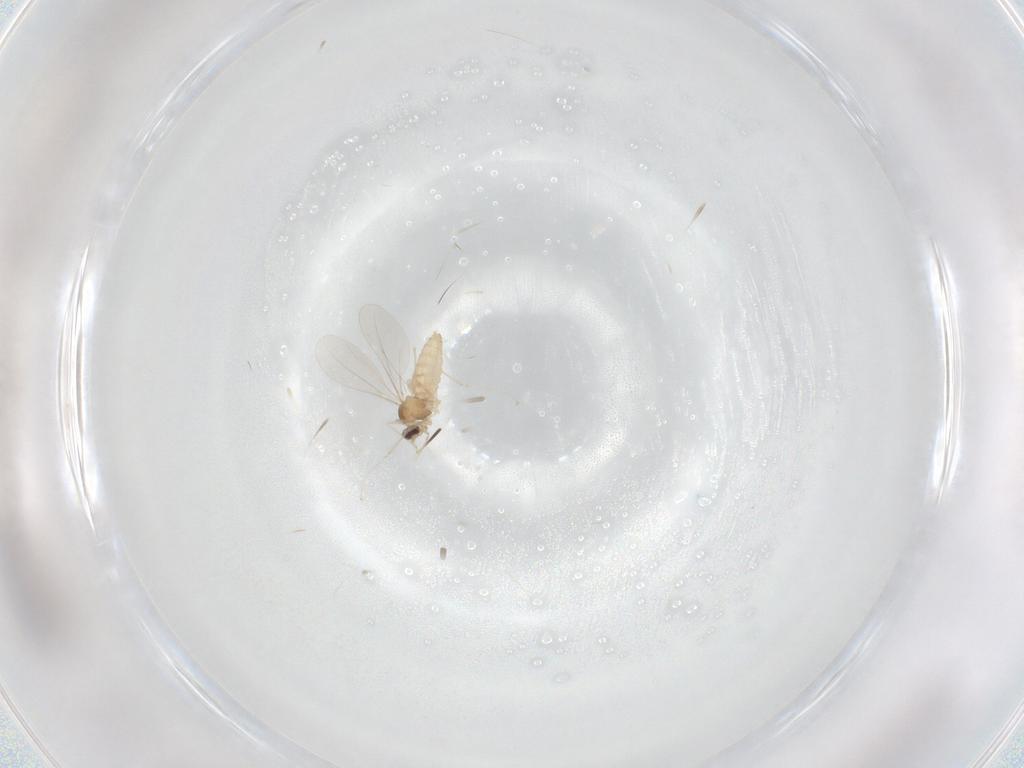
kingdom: Animalia
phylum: Arthropoda
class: Insecta
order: Diptera
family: Cecidomyiidae
